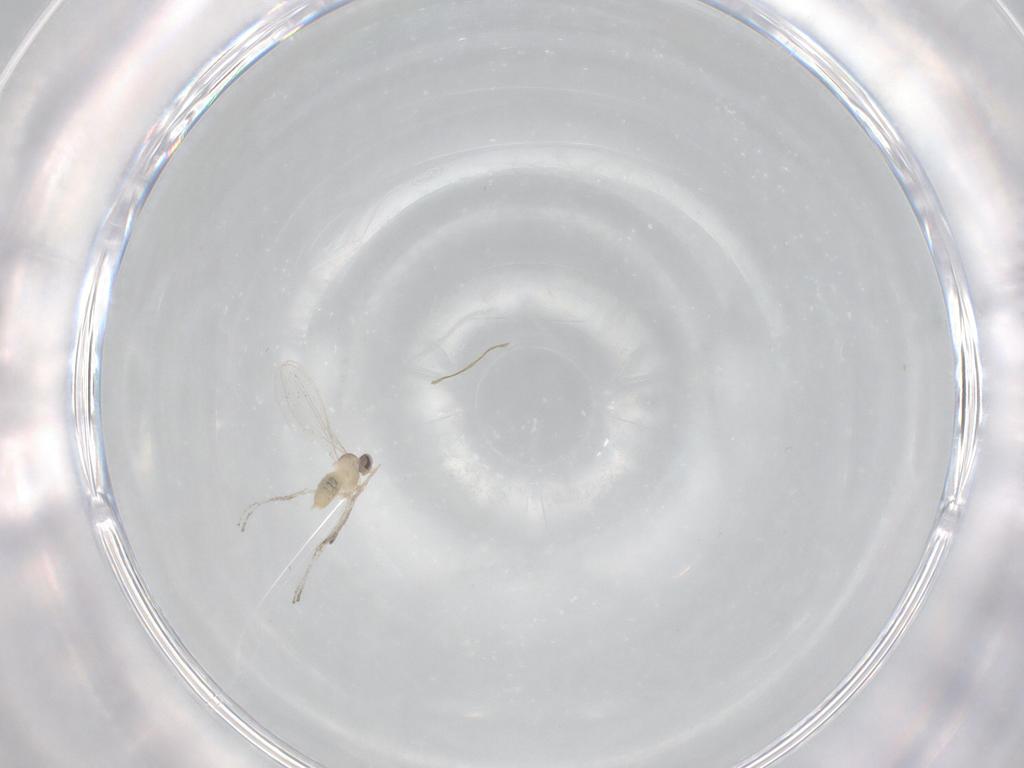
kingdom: Animalia
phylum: Arthropoda
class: Insecta
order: Diptera
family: Cecidomyiidae
